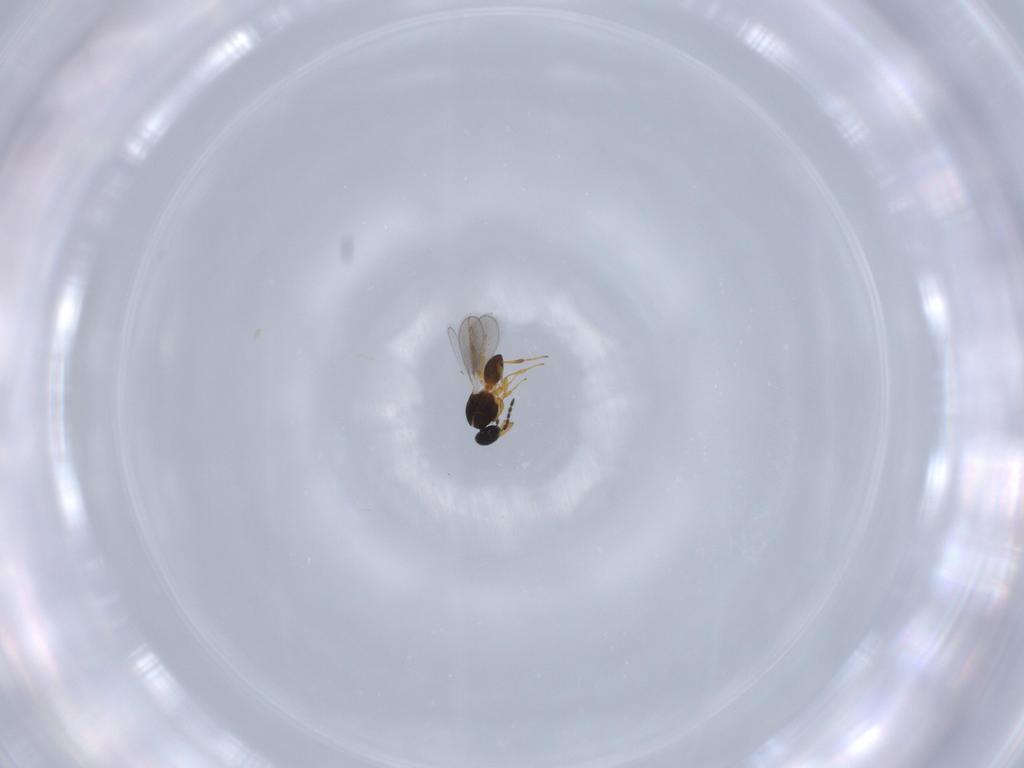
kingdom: Animalia
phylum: Arthropoda
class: Insecta
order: Hymenoptera
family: Platygastridae
